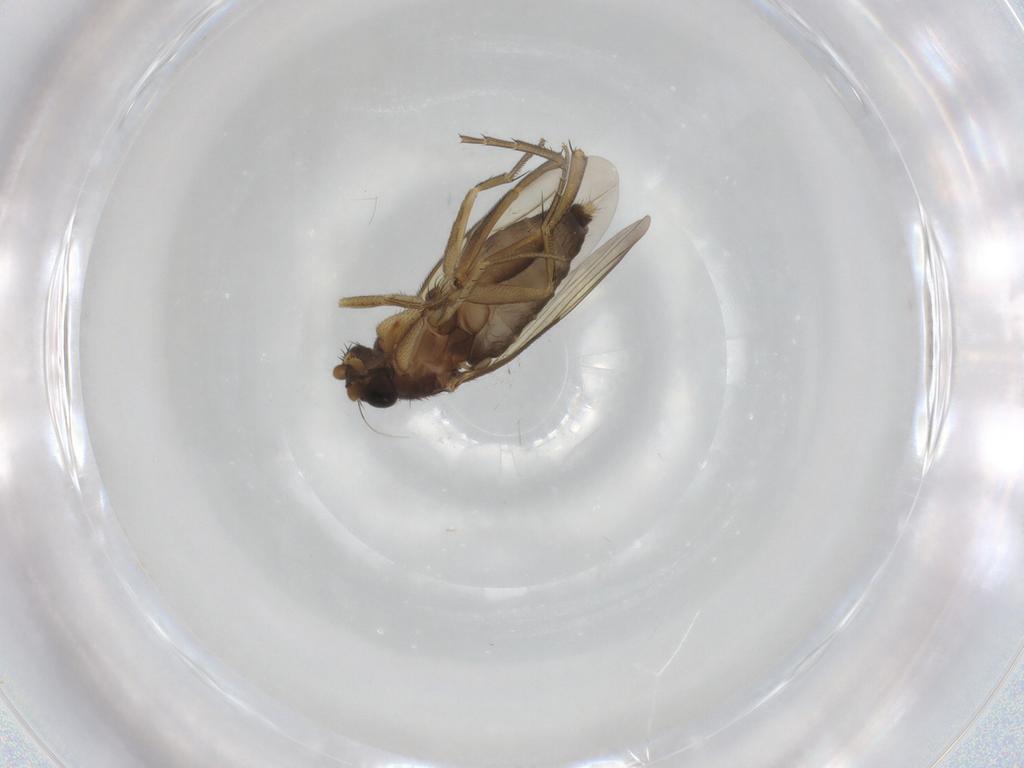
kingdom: Animalia
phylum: Arthropoda
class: Insecta
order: Diptera
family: Phoridae
